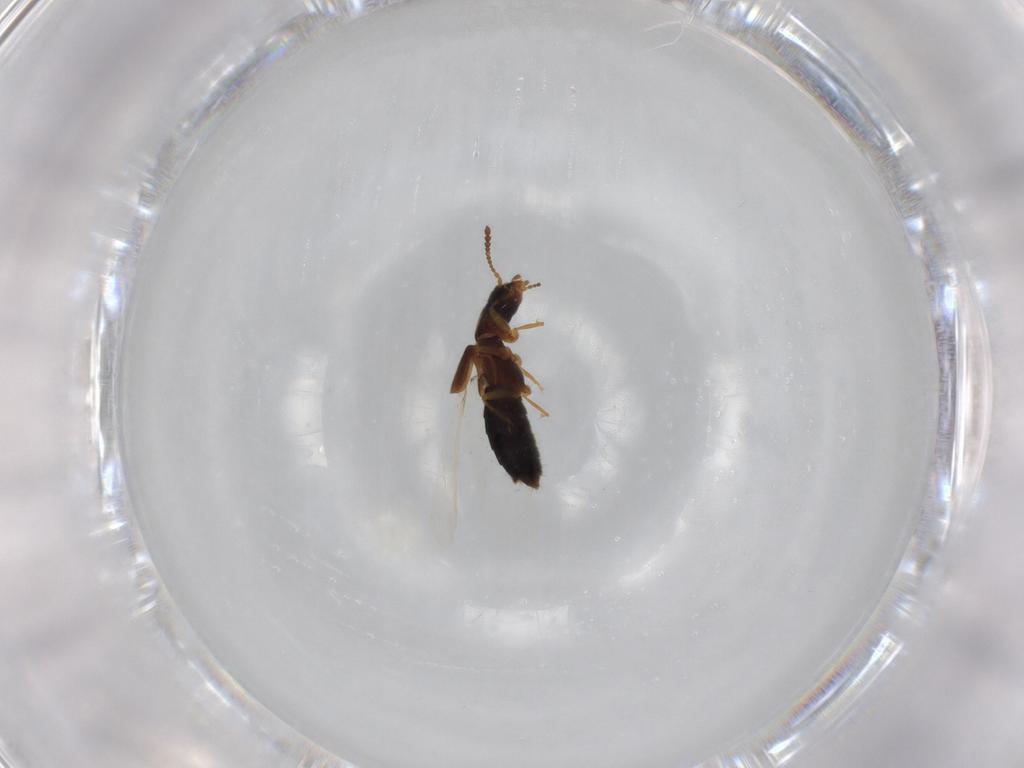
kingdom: Animalia
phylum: Arthropoda
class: Insecta
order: Coleoptera
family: Staphylinidae
